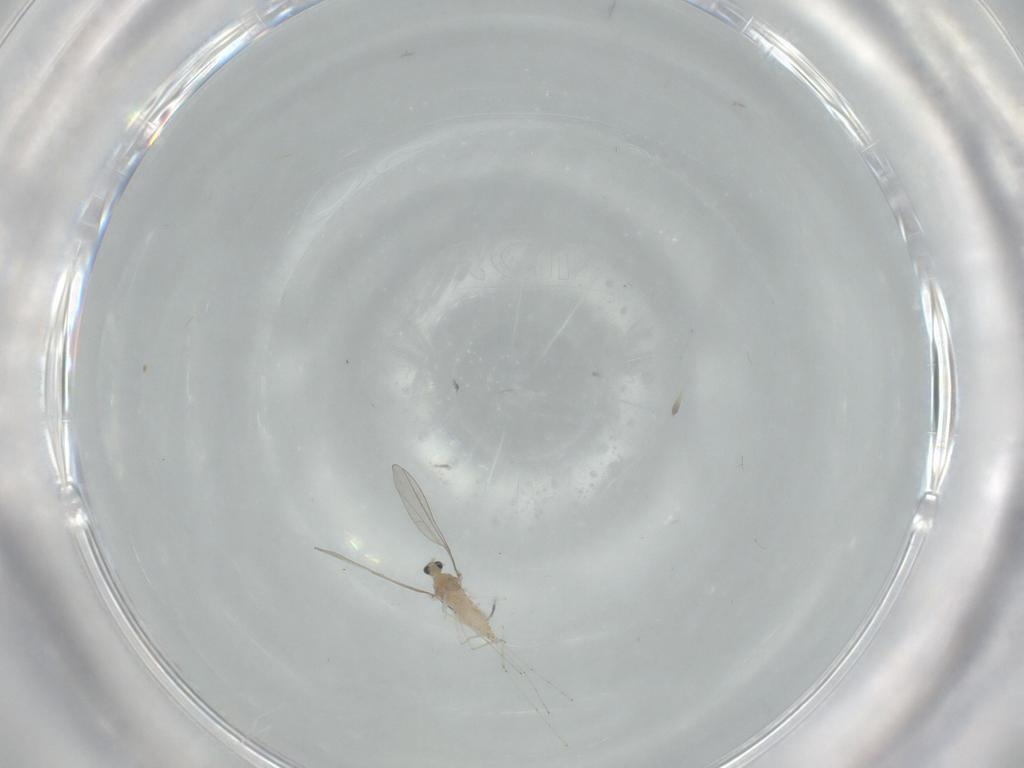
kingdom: Animalia
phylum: Arthropoda
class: Insecta
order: Diptera
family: Cecidomyiidae
